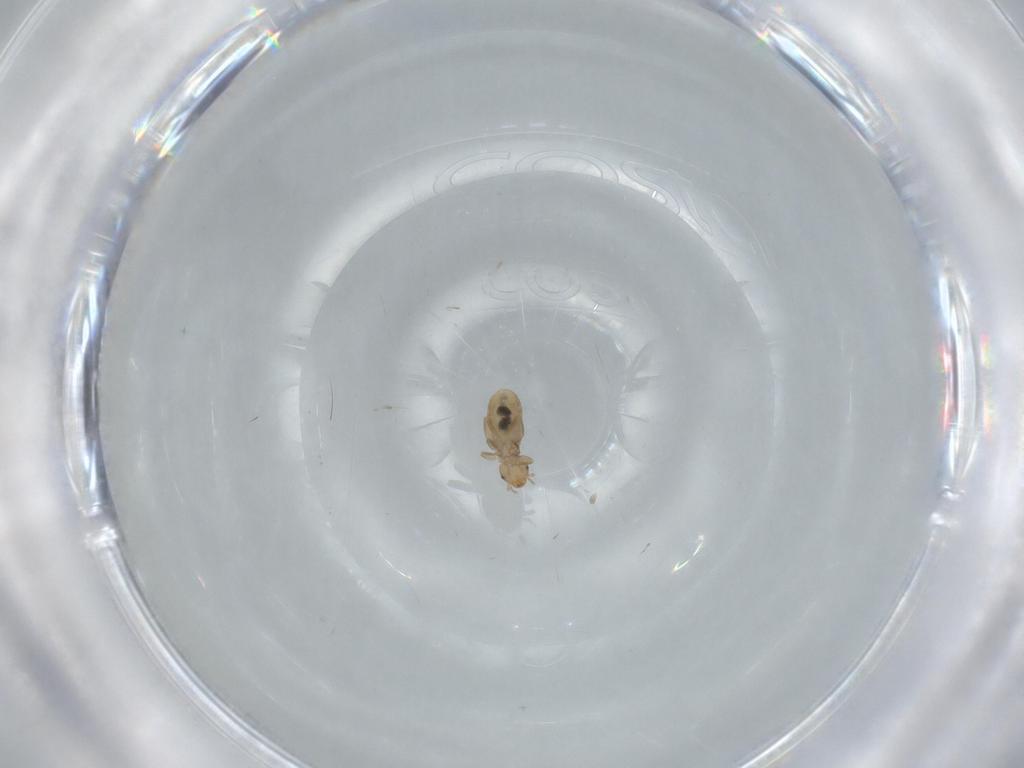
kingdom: Animalia
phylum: Arthropoda
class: Insecta
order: Psocodea
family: Liposcelididae
